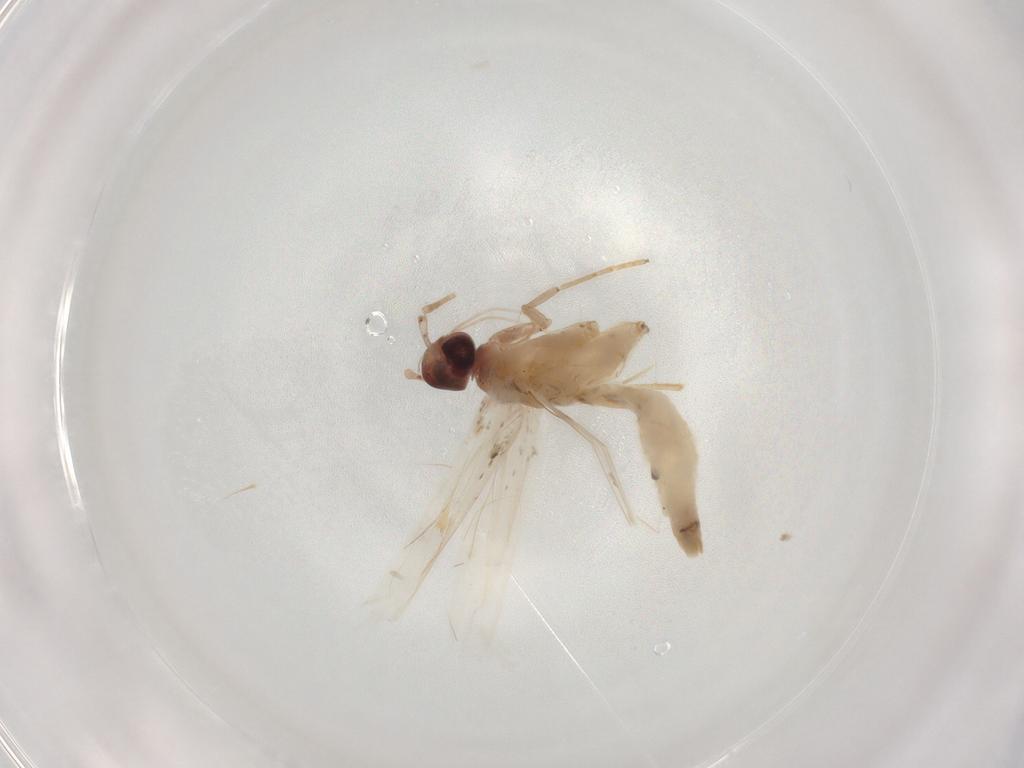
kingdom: Animalia
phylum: Arthropoda
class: Insecta
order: Lepidoptera
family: Cosmopterigidae
